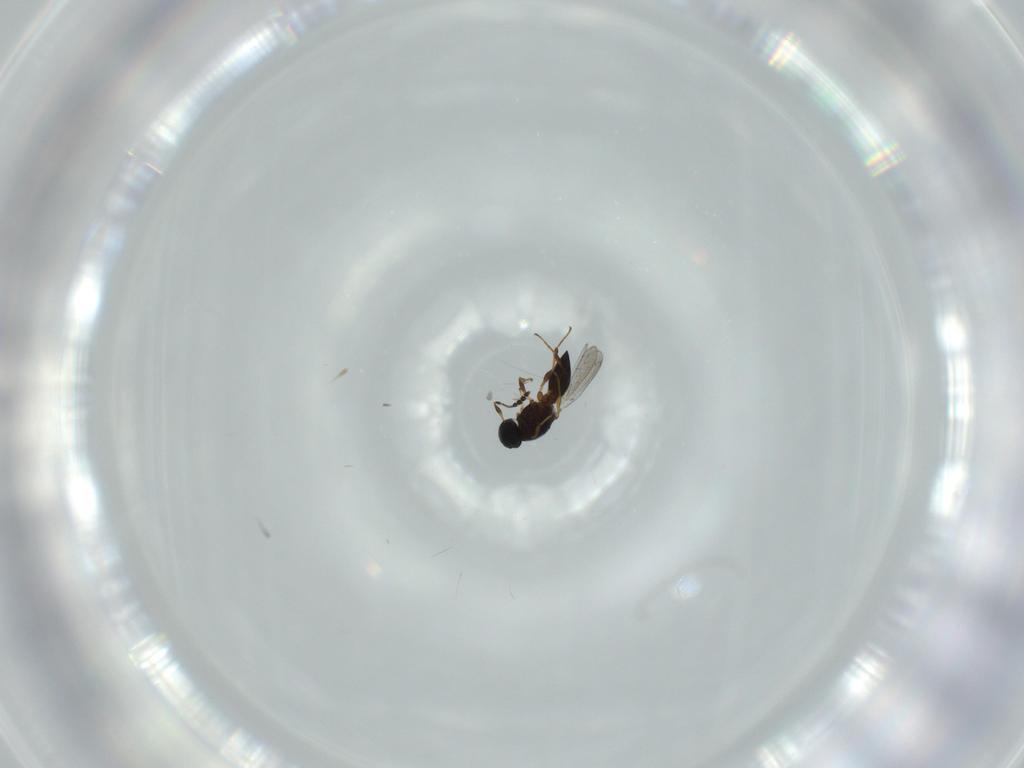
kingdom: Animalia
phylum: Arthropoda
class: Insecta
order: Hymenoptera
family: Platygastridae
